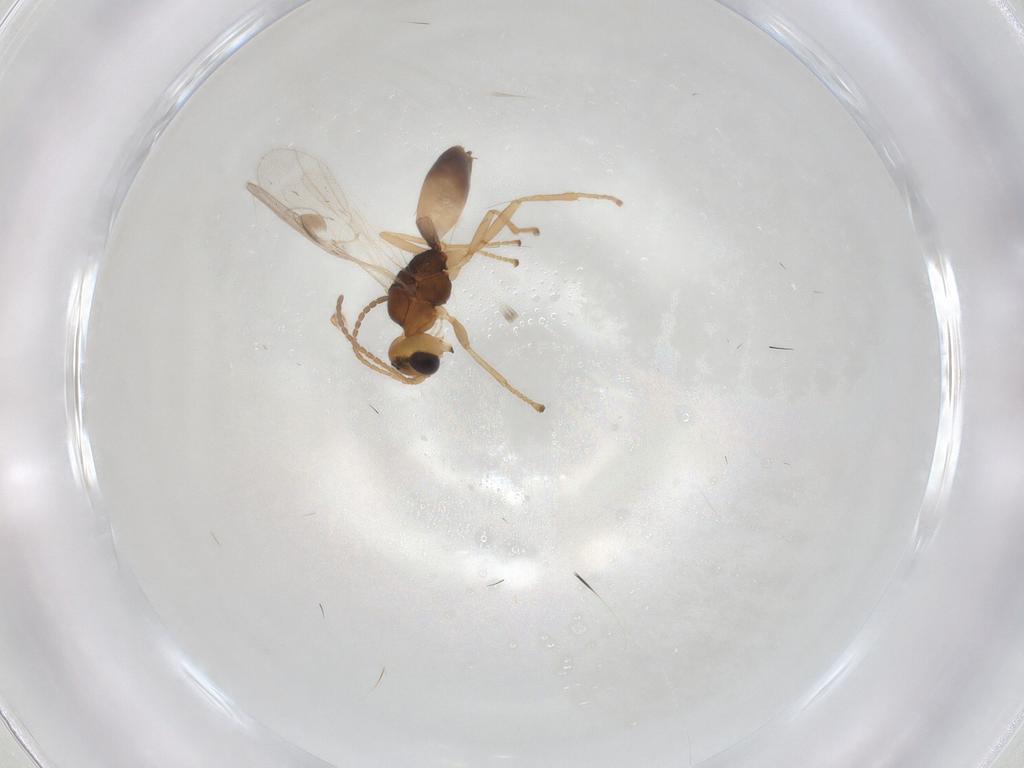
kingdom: Animalia
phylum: Arthropoda
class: Insecta
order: Hymenoptera
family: Braconidae
